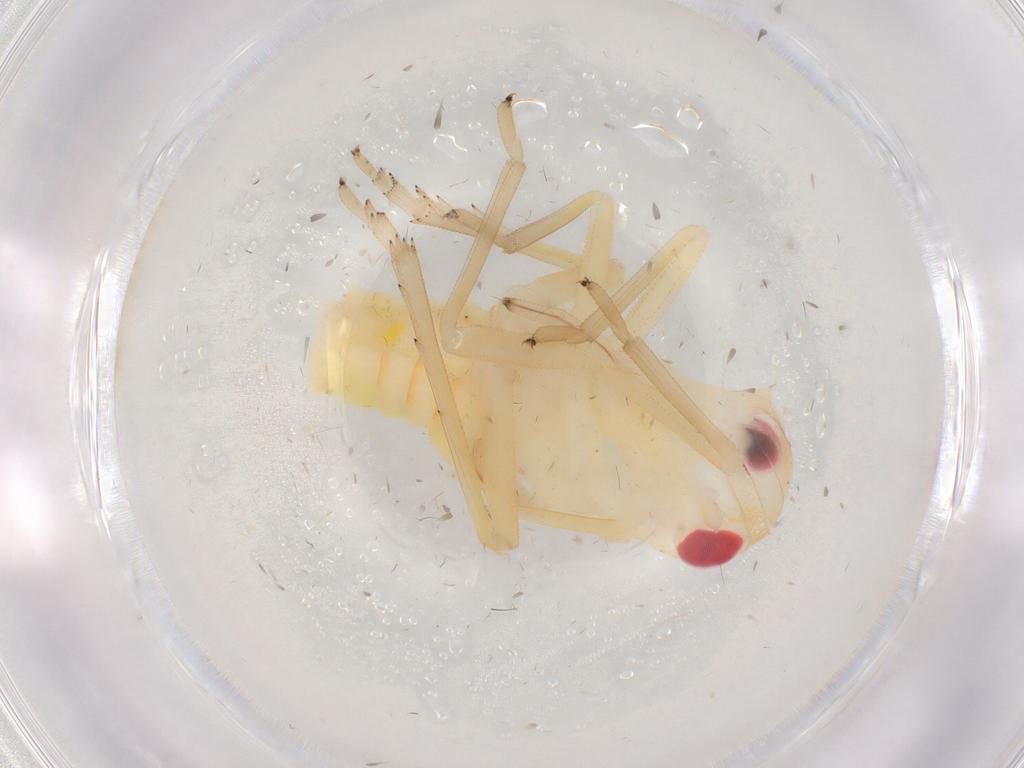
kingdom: Animalia
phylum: Arthropoda
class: Insecta
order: Hemiptera
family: Tropiduchidae
